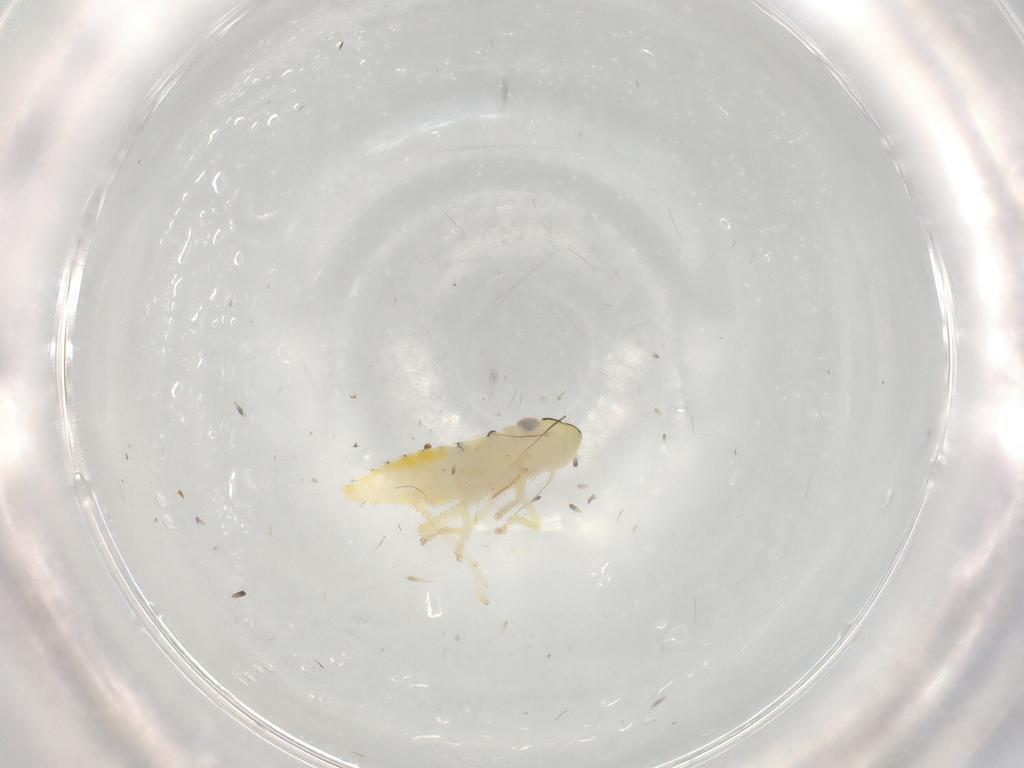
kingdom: Animalia
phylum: Arthropoda
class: Insecta
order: Hemiptera
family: Cicadellidae
